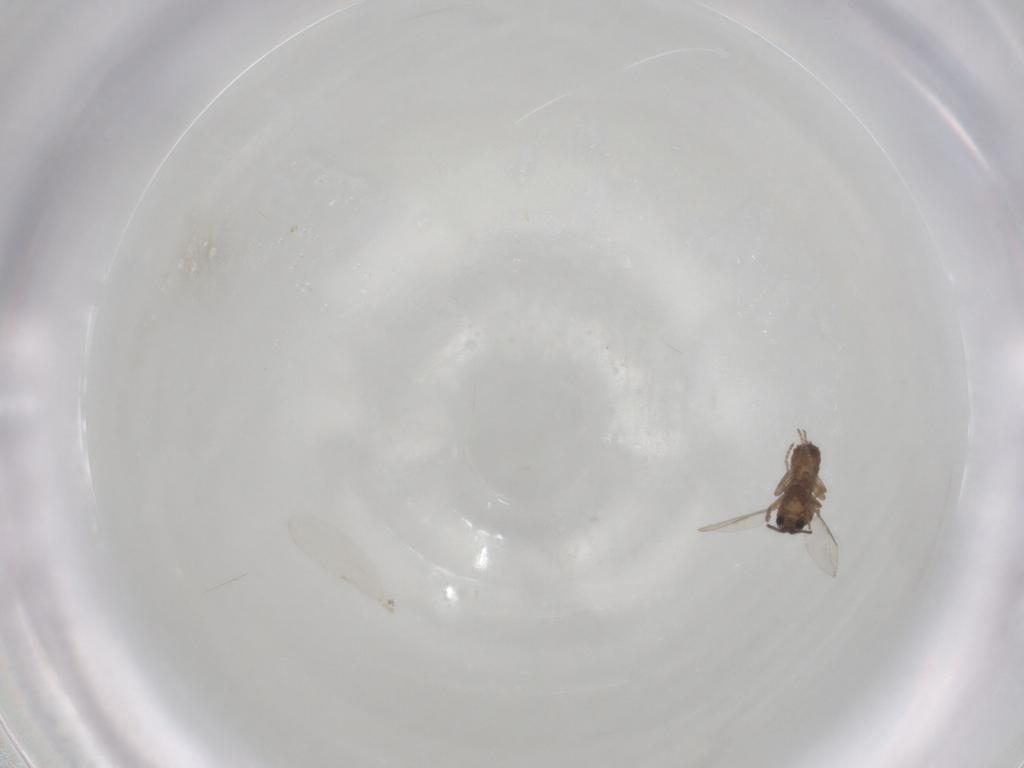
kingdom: Animalia
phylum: Arthropoda
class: Insecta
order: Diptera
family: Ceratopogonidae
